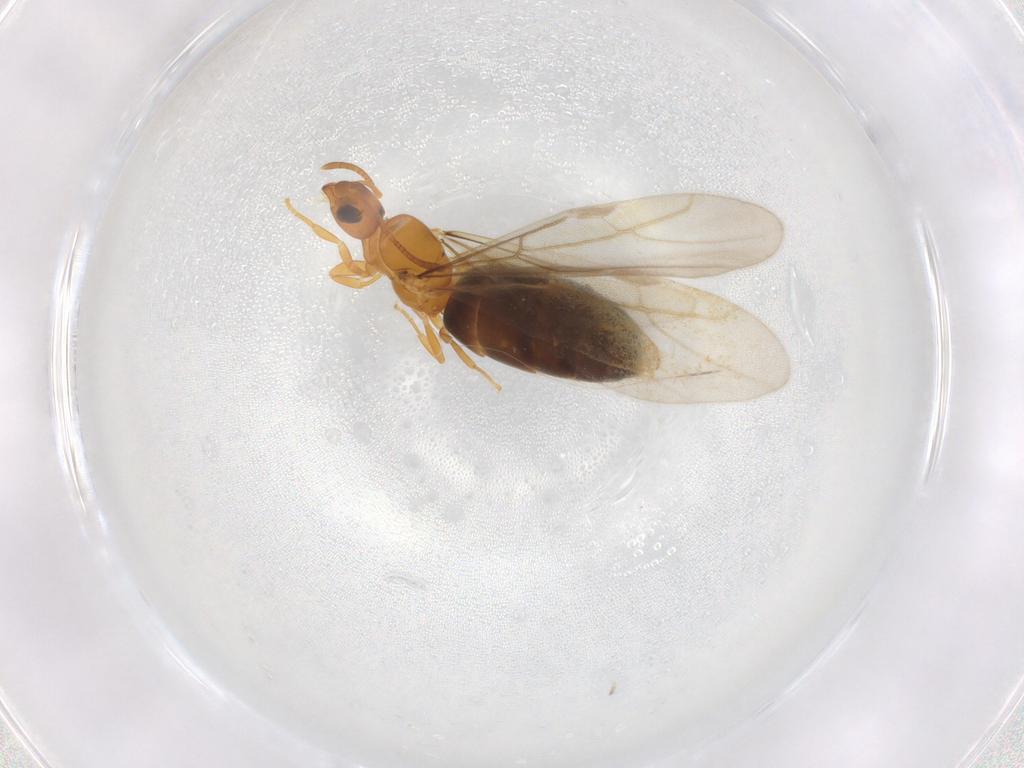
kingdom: Animalia
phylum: Arthropoda
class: Insecta
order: Hymenoptera
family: Formicidae
